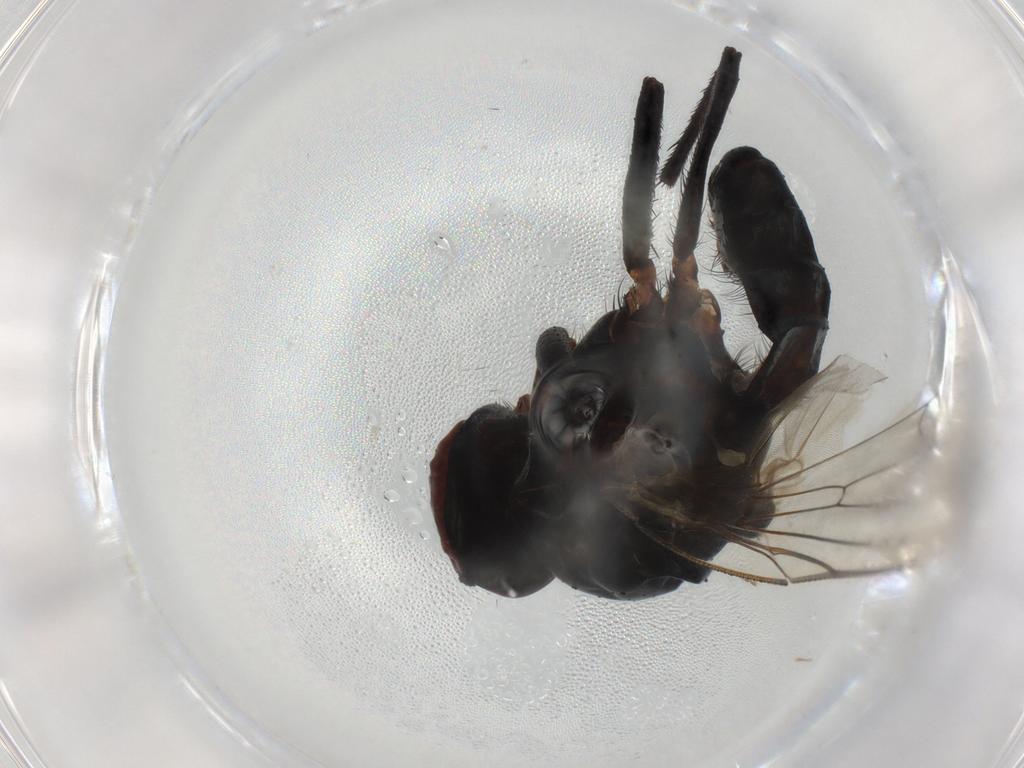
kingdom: Animalia
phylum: Arthropoda
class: Insecta
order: Diptera
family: Anthomyiidae
